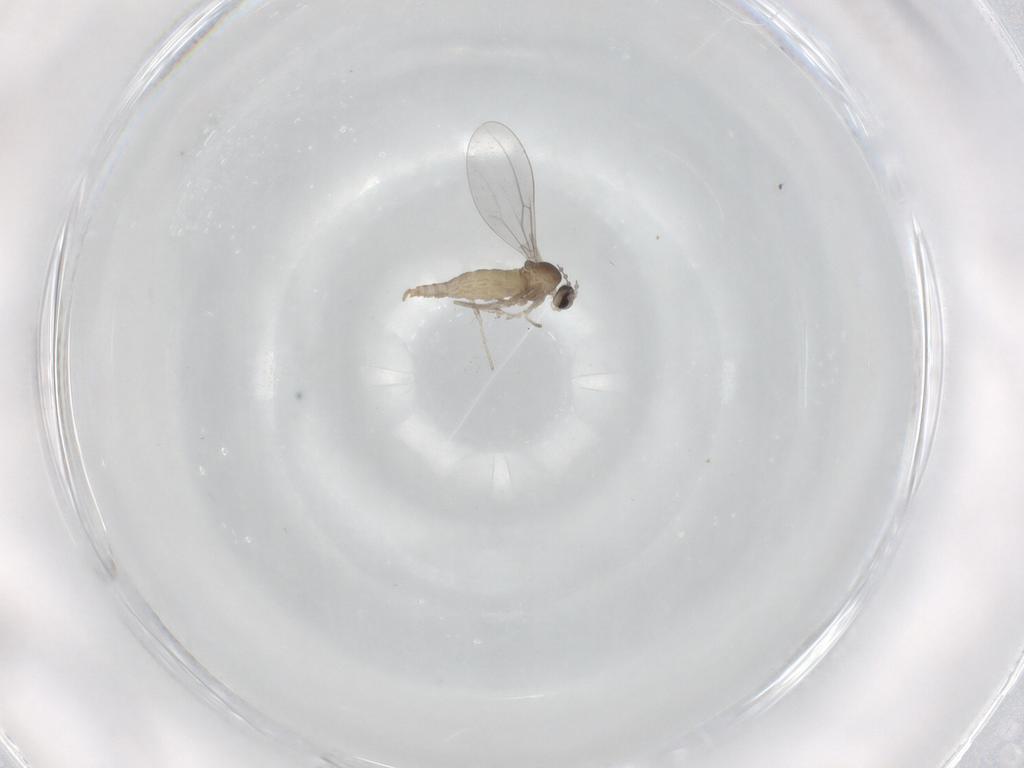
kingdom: Animalia
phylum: Arthropoda
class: Insecta
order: Diptera
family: Cecidomyiidae
